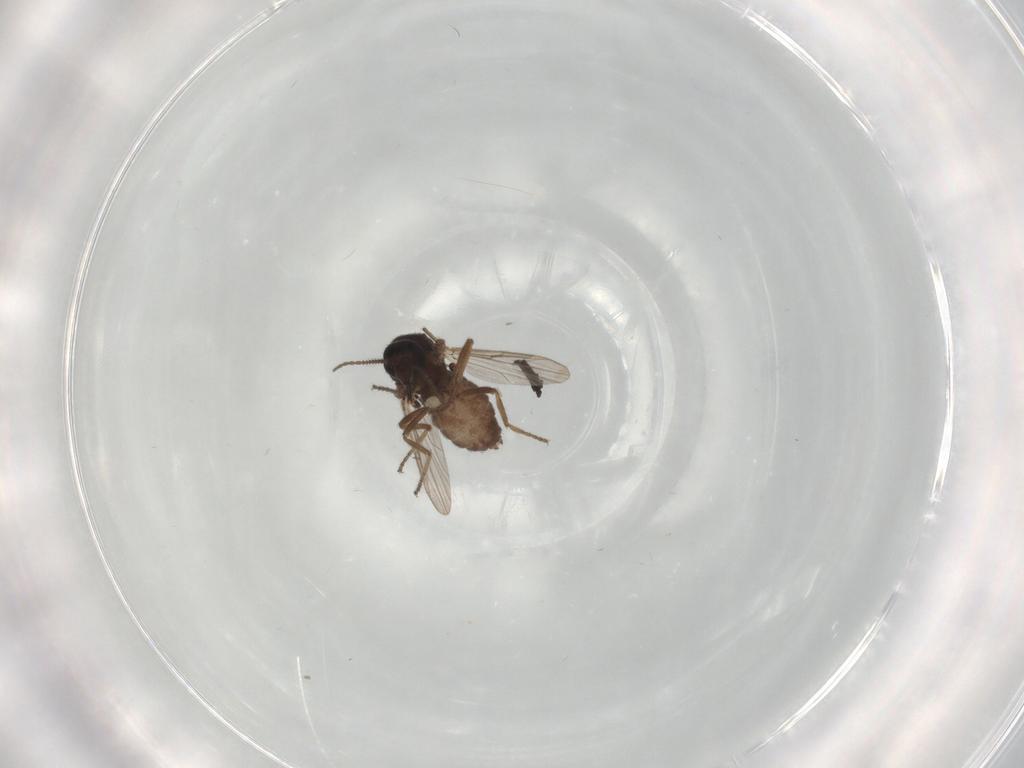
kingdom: Animalia
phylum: Arthropoda
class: Insecta
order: Diptera
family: Ceratopogonidae
